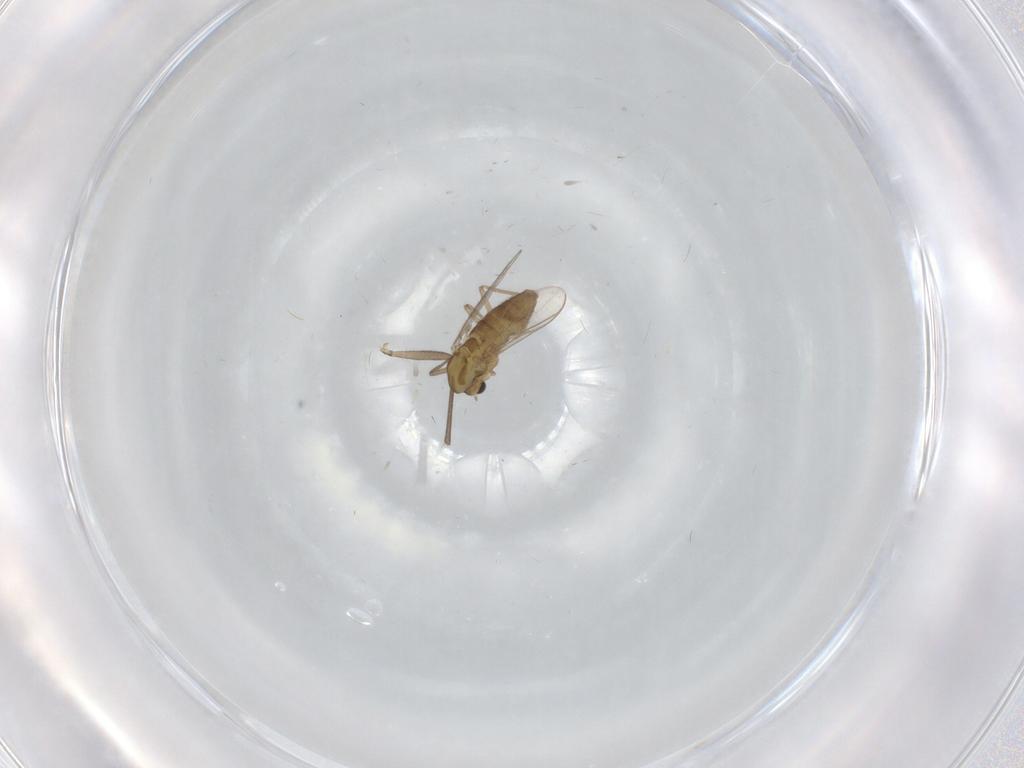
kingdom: Animalia
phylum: Arthropoda
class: Insecta
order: Diptera
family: Chironomidae
